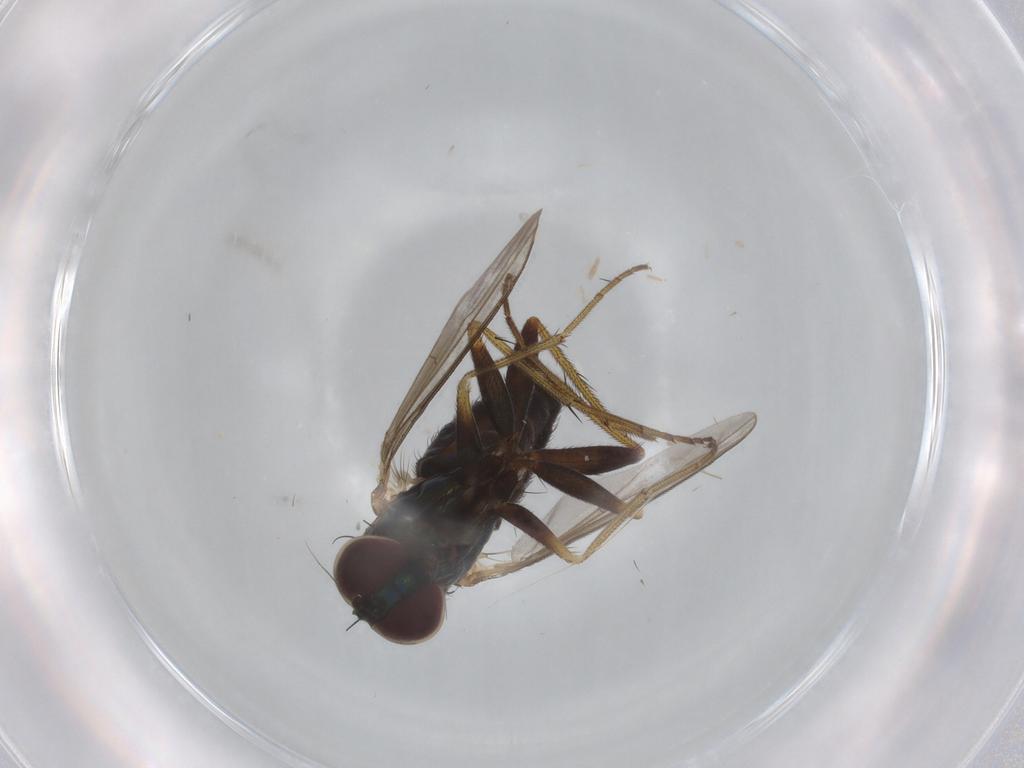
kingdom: Animalia
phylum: Arthropoda
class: Insecta
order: Diptera
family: Dolichopodidae
